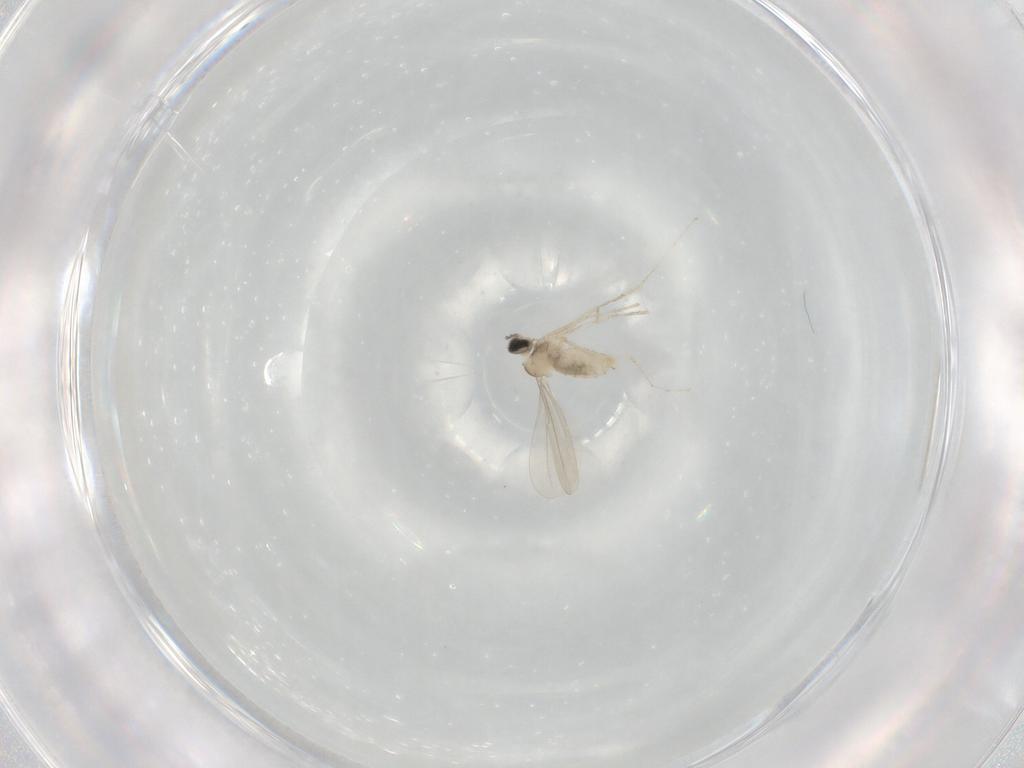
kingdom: Animalia
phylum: Arthropoda
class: Insecta
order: Diptera
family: Cecidomyiidae
